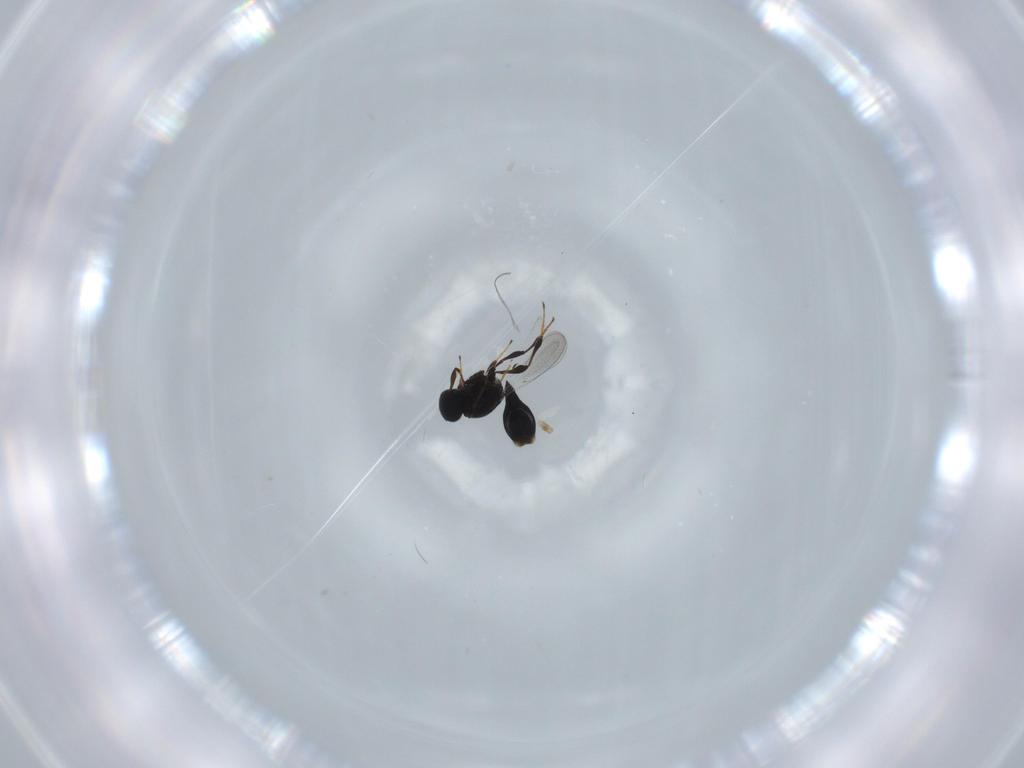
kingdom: Animalia
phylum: Arthropoda
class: Insecta
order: Hymenoptera
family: Platygastridae
